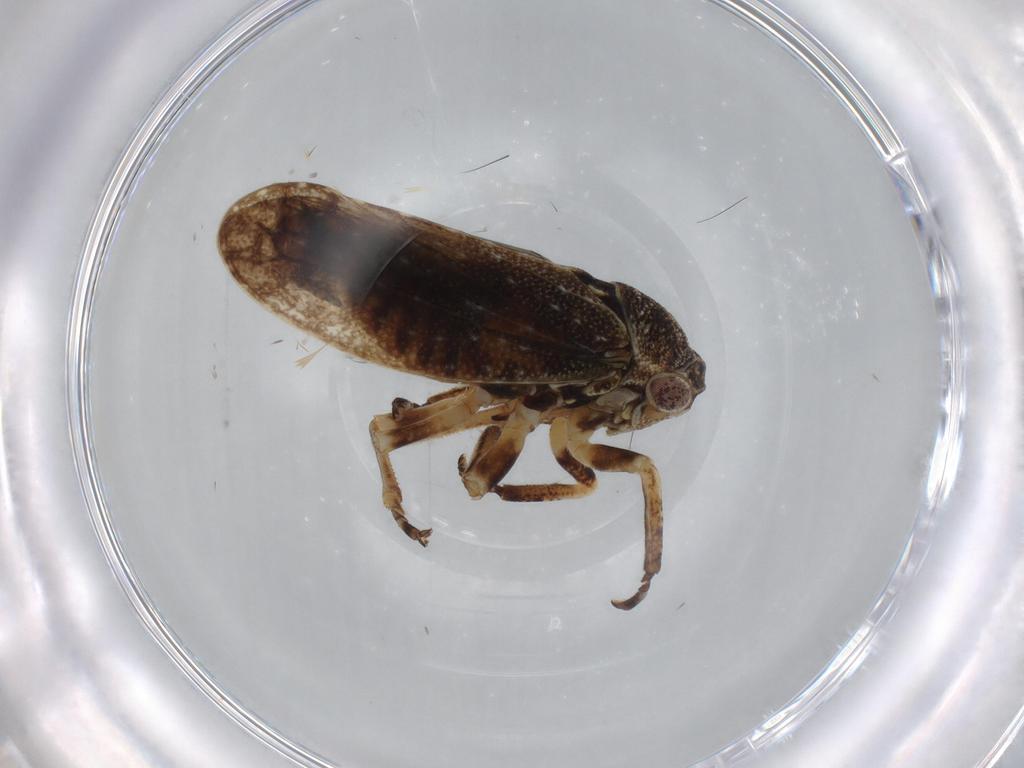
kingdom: Animalia
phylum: Arthropoda
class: Insecta
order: Hemiptera
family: Cicadellidae
